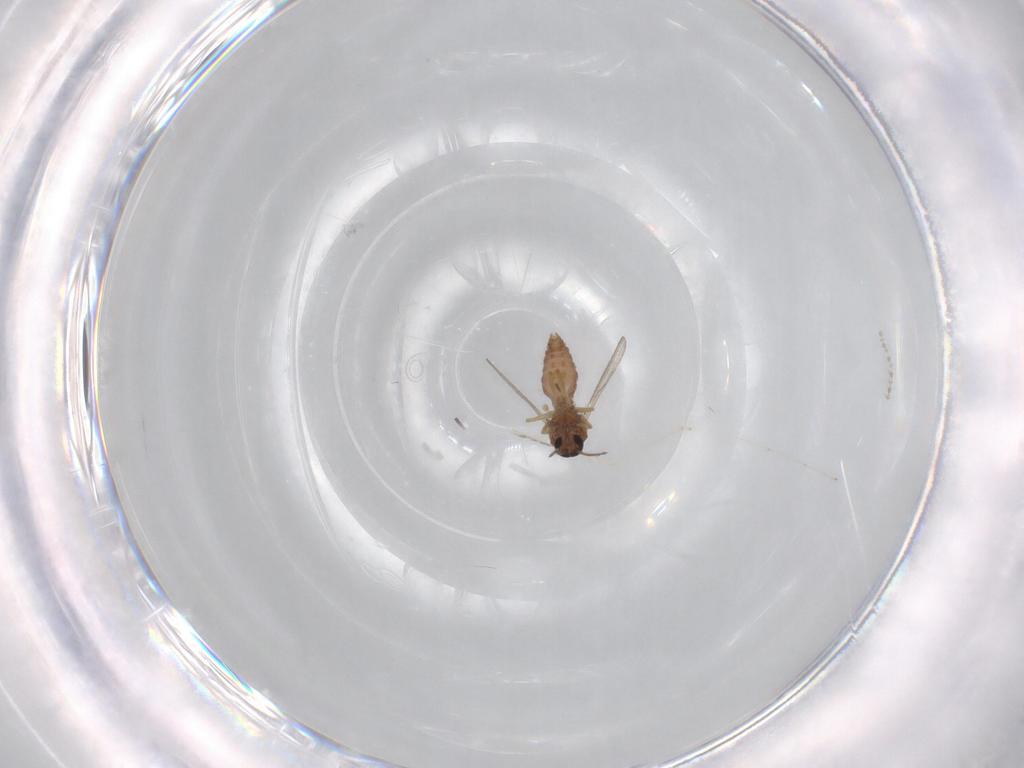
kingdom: Animalia
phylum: Arthropoda
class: Insecta
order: Diptera
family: Ceratopogonidae
